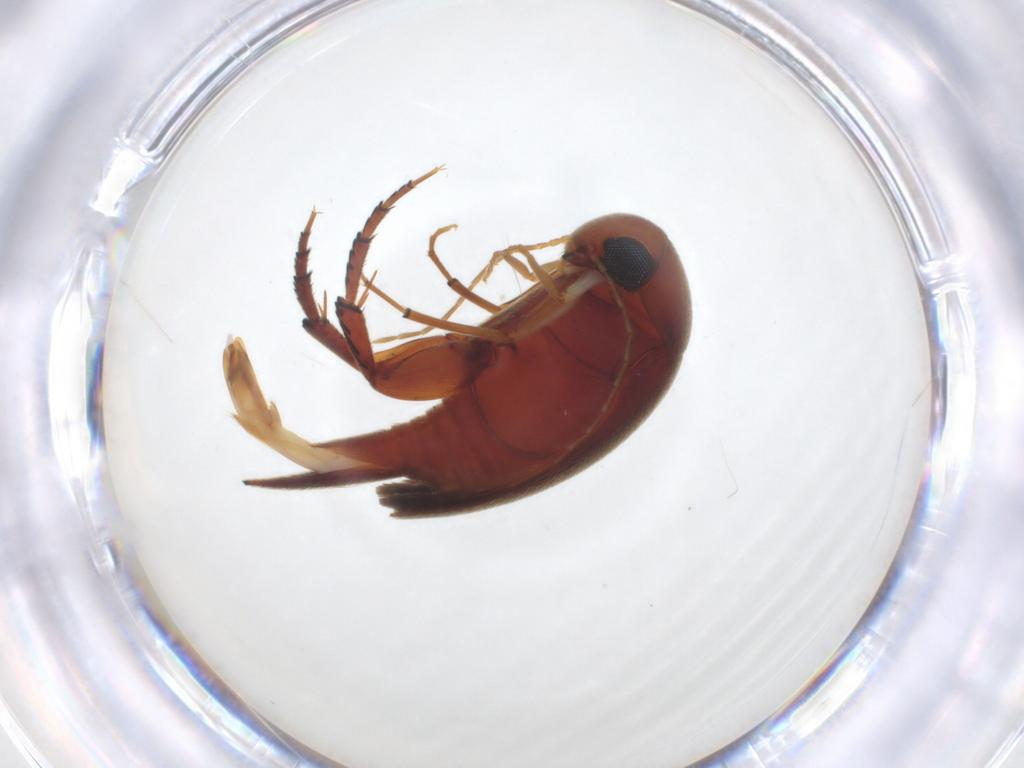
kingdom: Animalia
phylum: Arthropoda
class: Insecta
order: Coleoptera
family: Mordellidae
